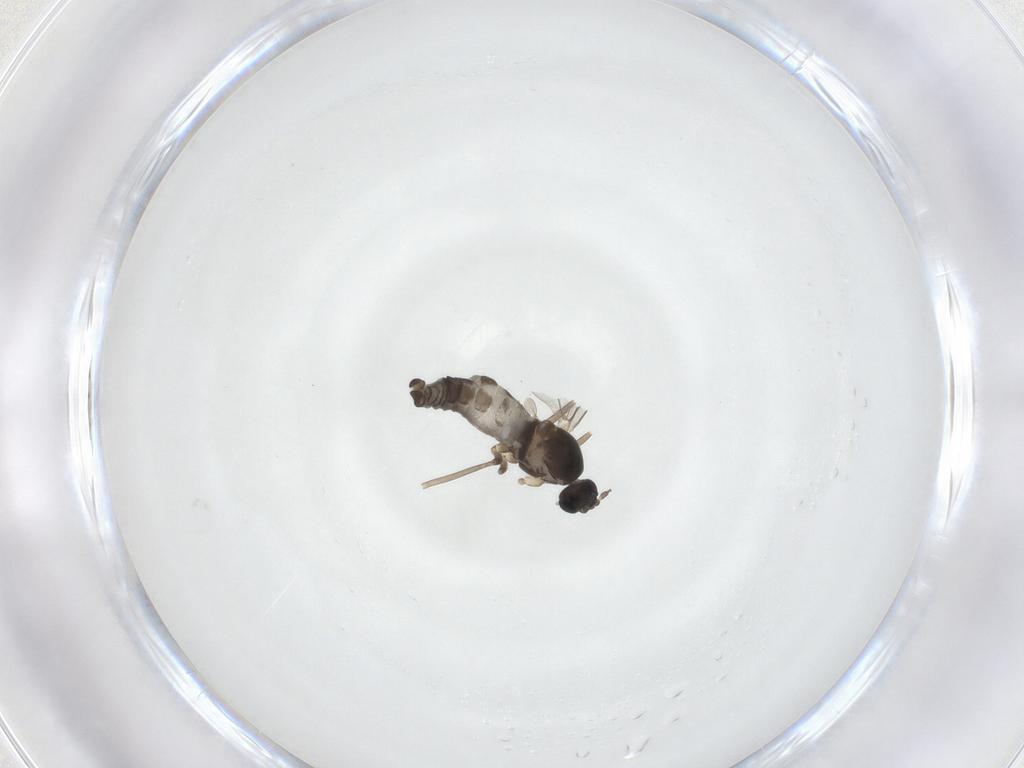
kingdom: Animalia
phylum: Arthropoda
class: Insecta
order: Diptera
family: Cecidomyiidae
